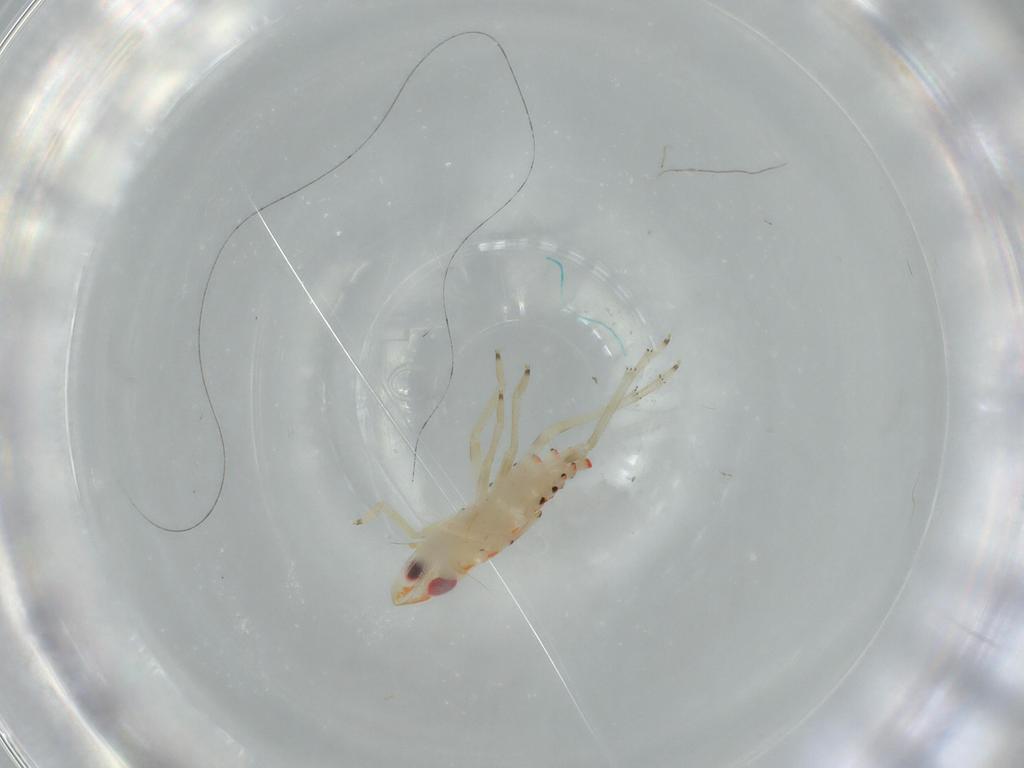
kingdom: Animalia
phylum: Arthropoda
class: Insecta
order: Hemiptera
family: Tropiduchidae
